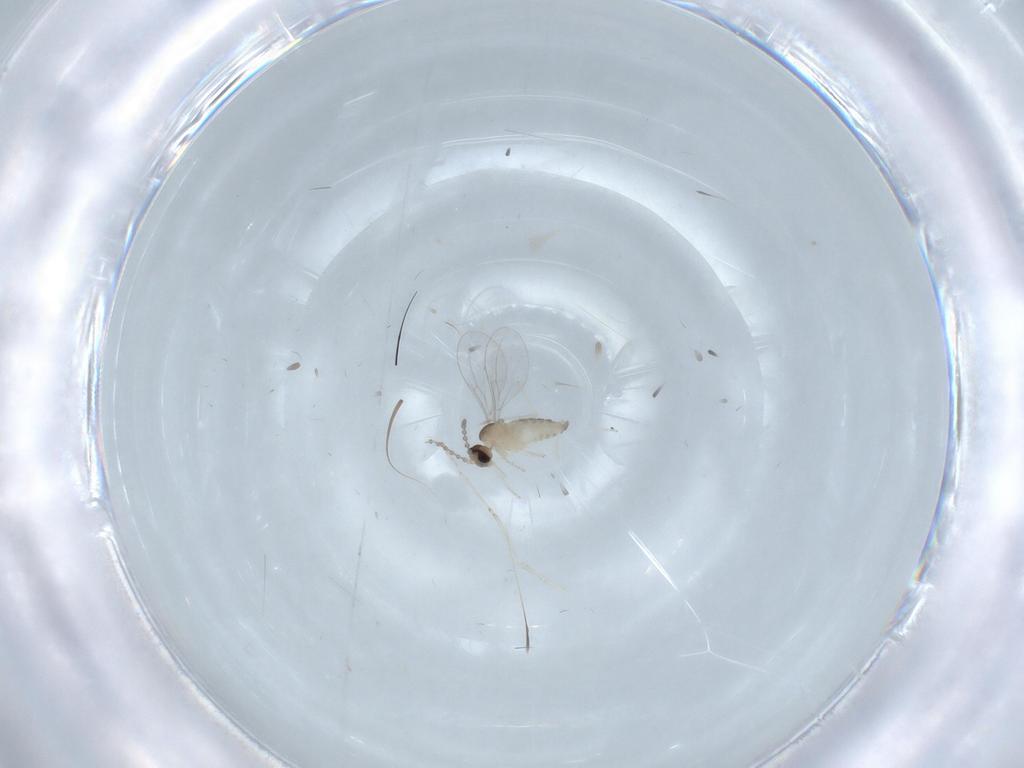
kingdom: Animalia
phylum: Arthropoda
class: Insecta
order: Diptera
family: Cecidomyiidae
